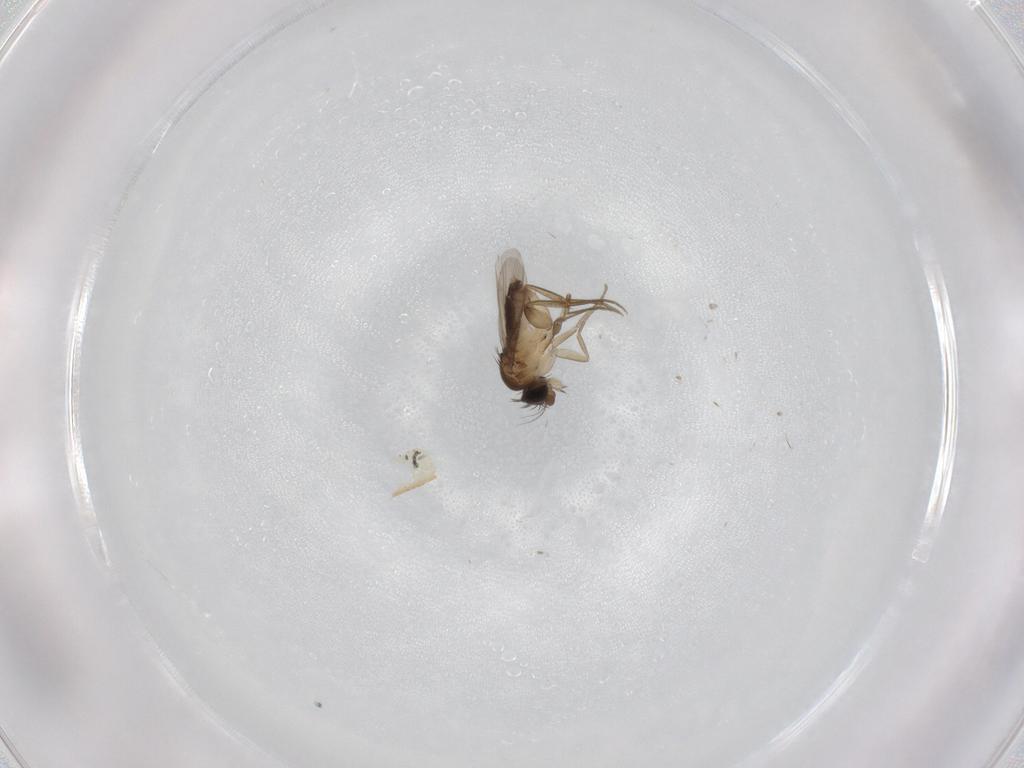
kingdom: Animalia
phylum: Arthropoda
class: Insecta
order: Diptera
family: Phoridae
